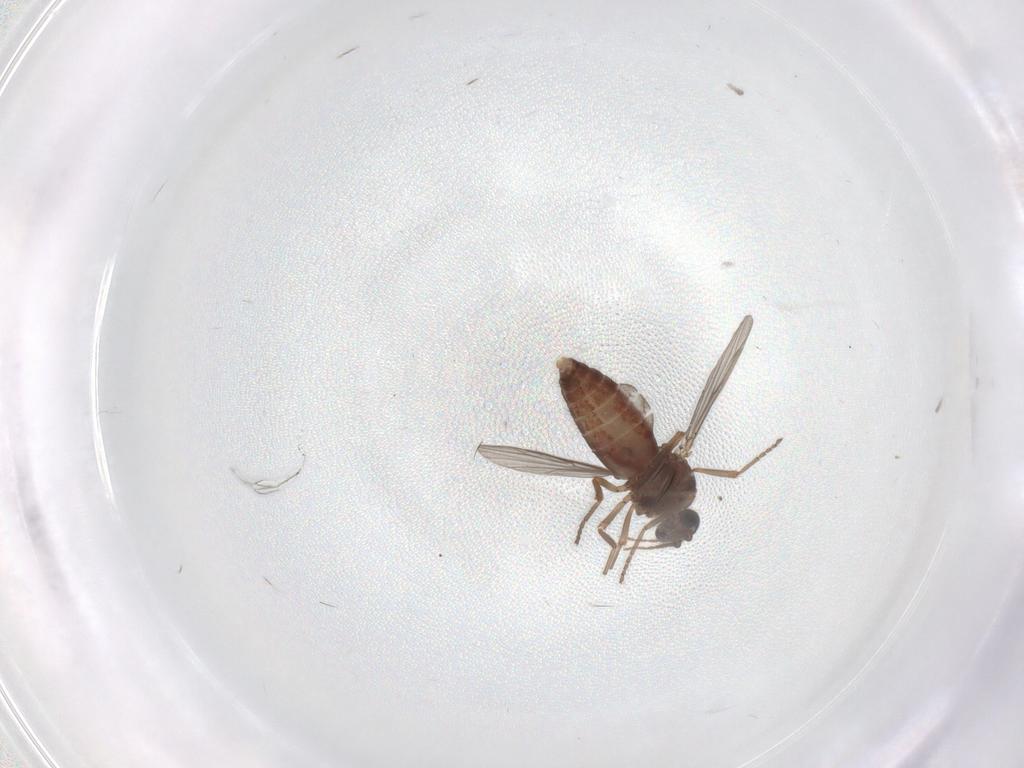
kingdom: Animalia
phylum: Arthropoda
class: Insecta
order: Diptera
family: Ceratopogonidae
